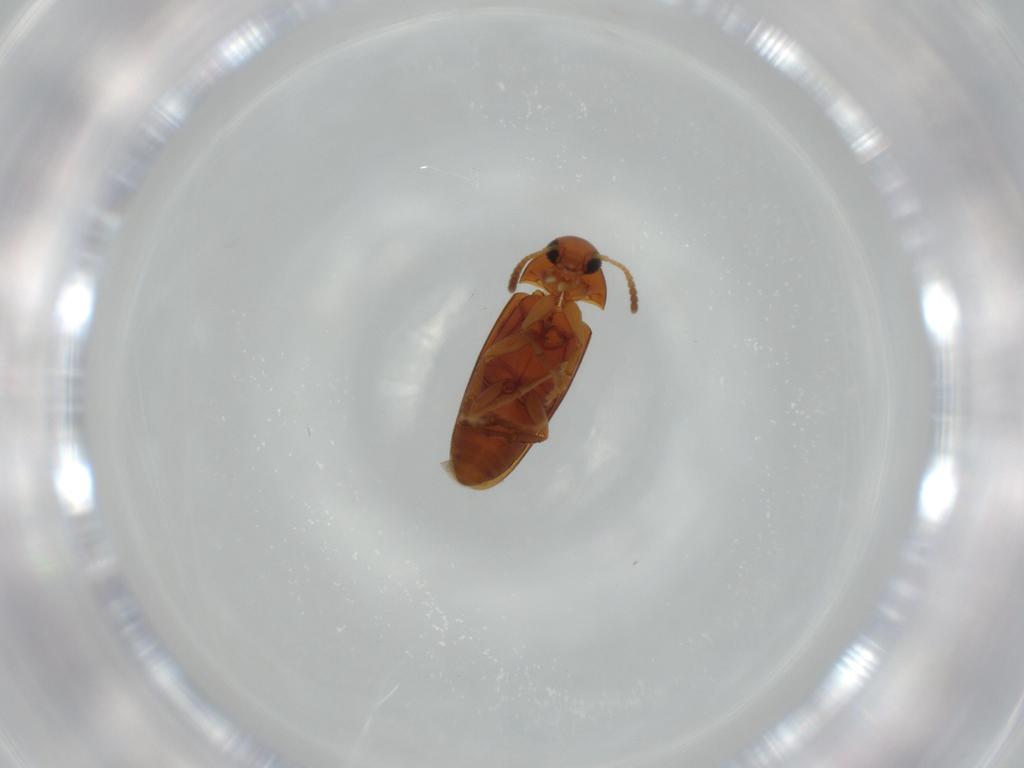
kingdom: Animalia
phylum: Arthropoda
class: Insecta
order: Coleoptera
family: Scraptiidae
